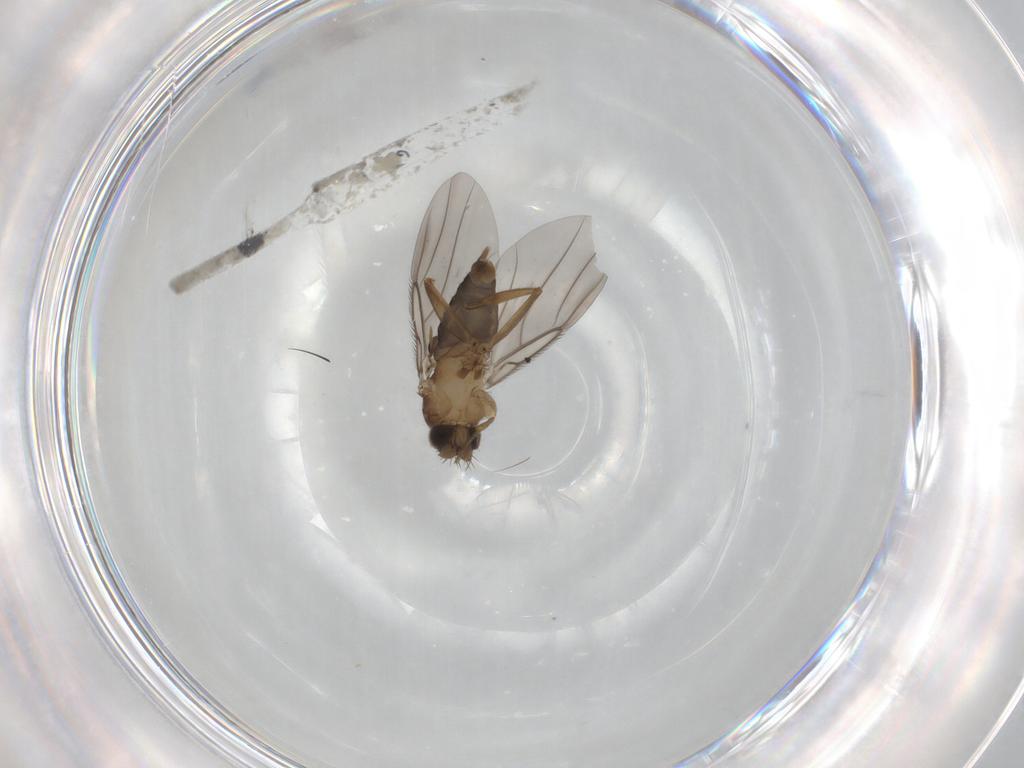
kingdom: Animalia
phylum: Arthropoda
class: Insecta
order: Diptera
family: Phoridae
